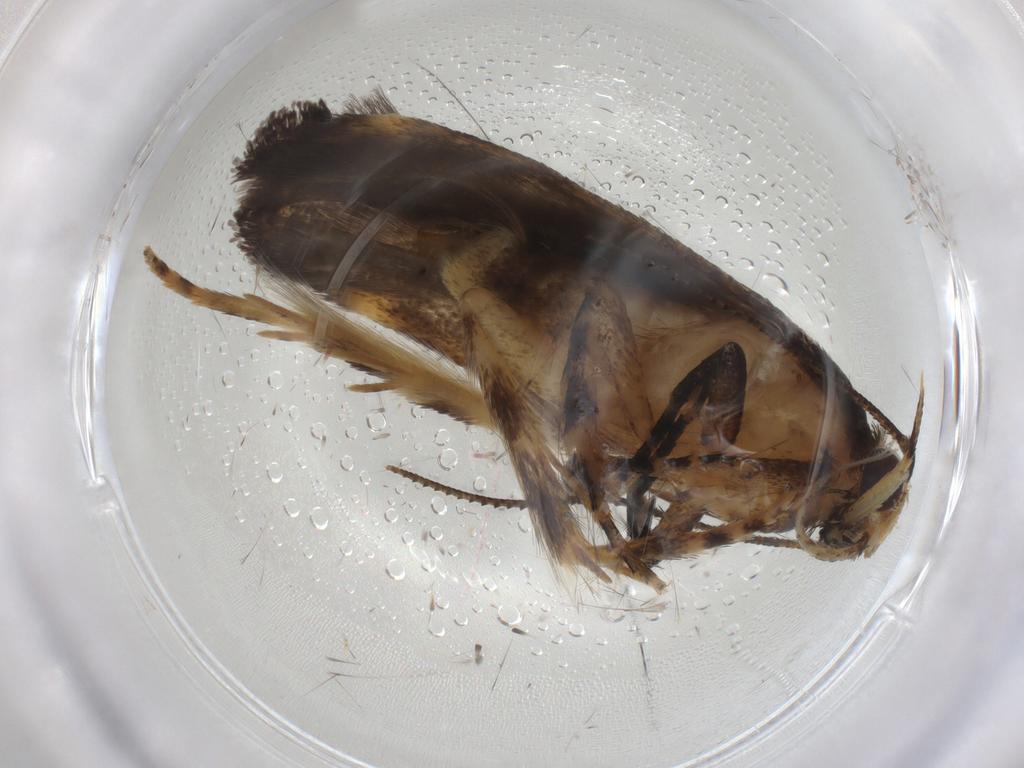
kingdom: Animalia
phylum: Arthropoda
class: Insecta
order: Lepidoptera
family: Gelechiidae
